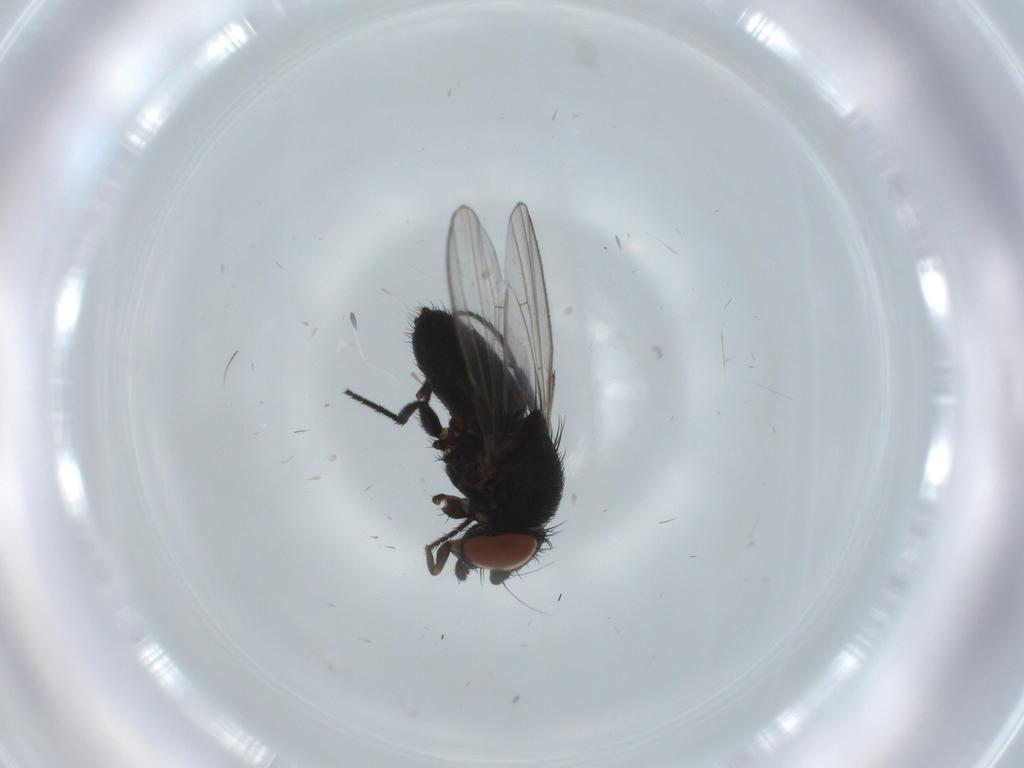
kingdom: Animalia
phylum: Arthropoda
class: Insecta
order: Diptera
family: Milichiidae
